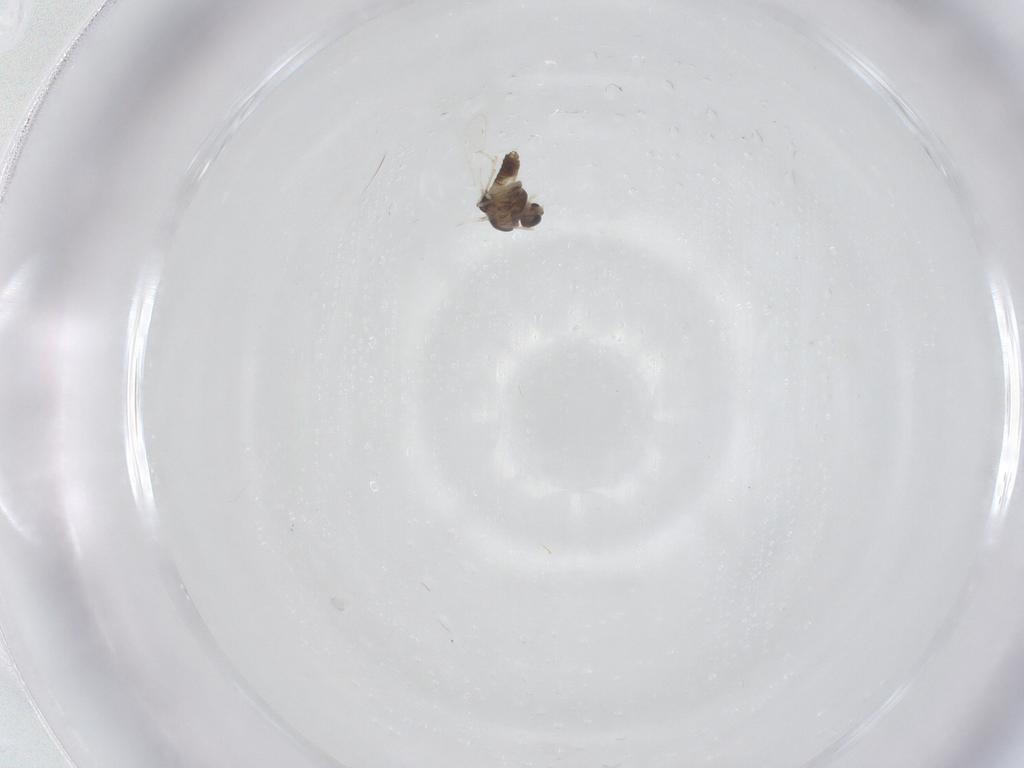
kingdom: Animalia
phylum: Arthropoda
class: Insecta
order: Diptera
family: Chironomidae
